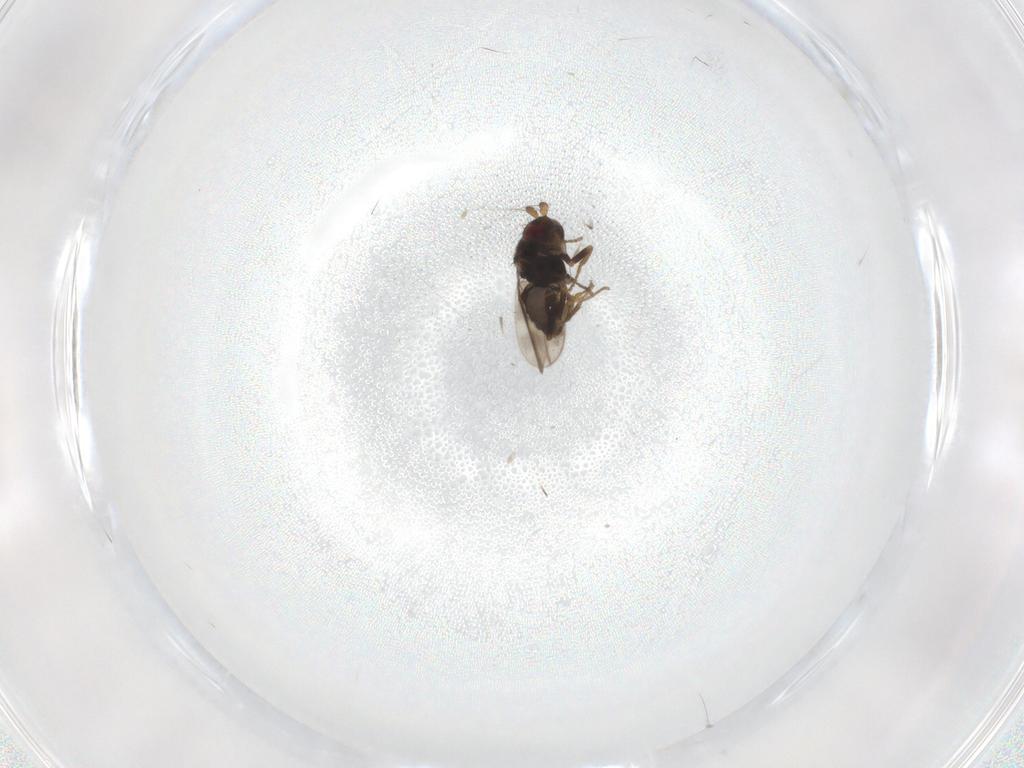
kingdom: Animalia
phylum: Arthropoda
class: Insecta
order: Diptera
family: Sphaeroceridae
